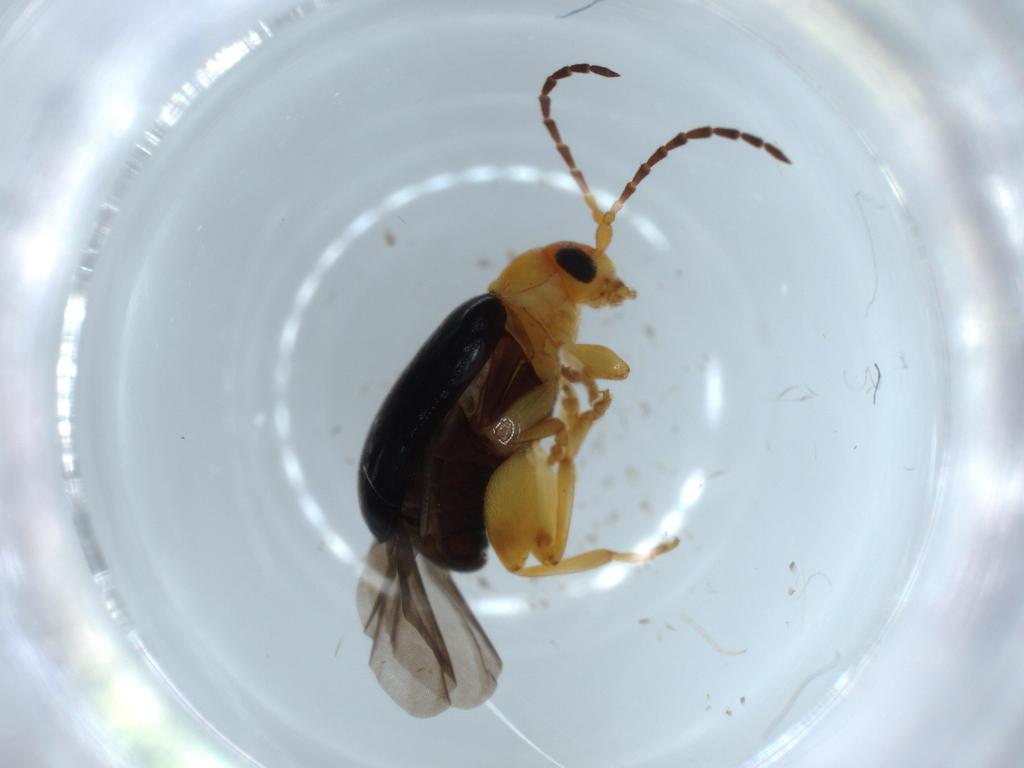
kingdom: Animalia
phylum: Arthropoda
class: Insecta
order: Coleoptera
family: Chrysomelidae
